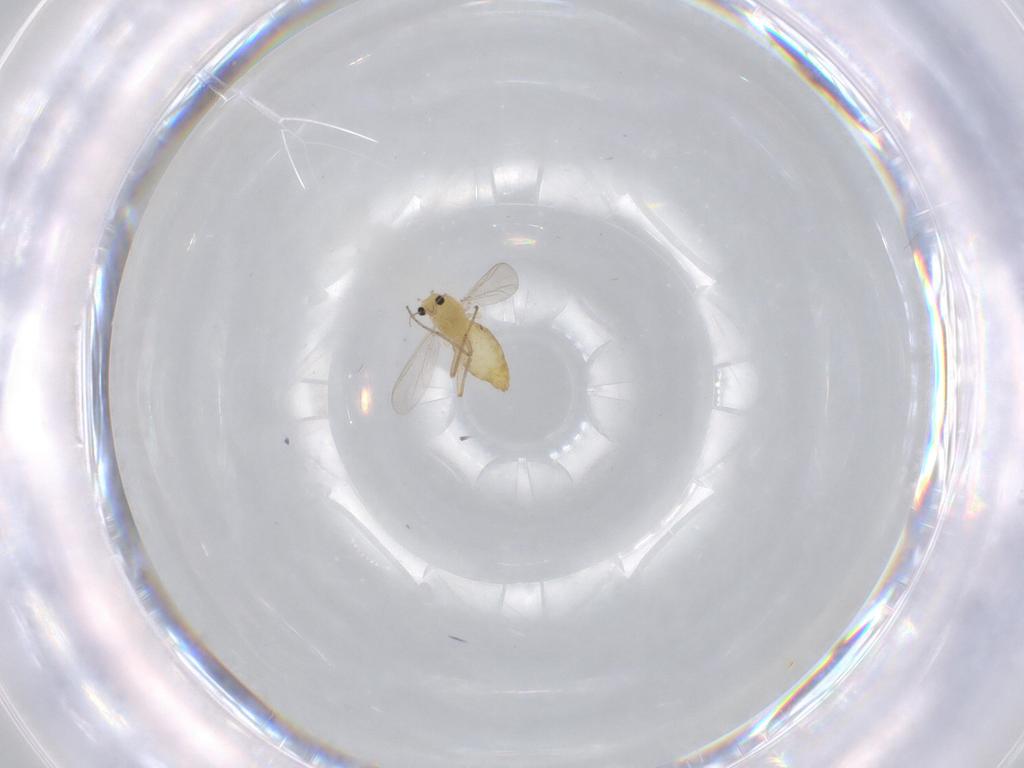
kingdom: Animalia
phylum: Arthropoda
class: Insecta
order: Diptera
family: Chironomidae
